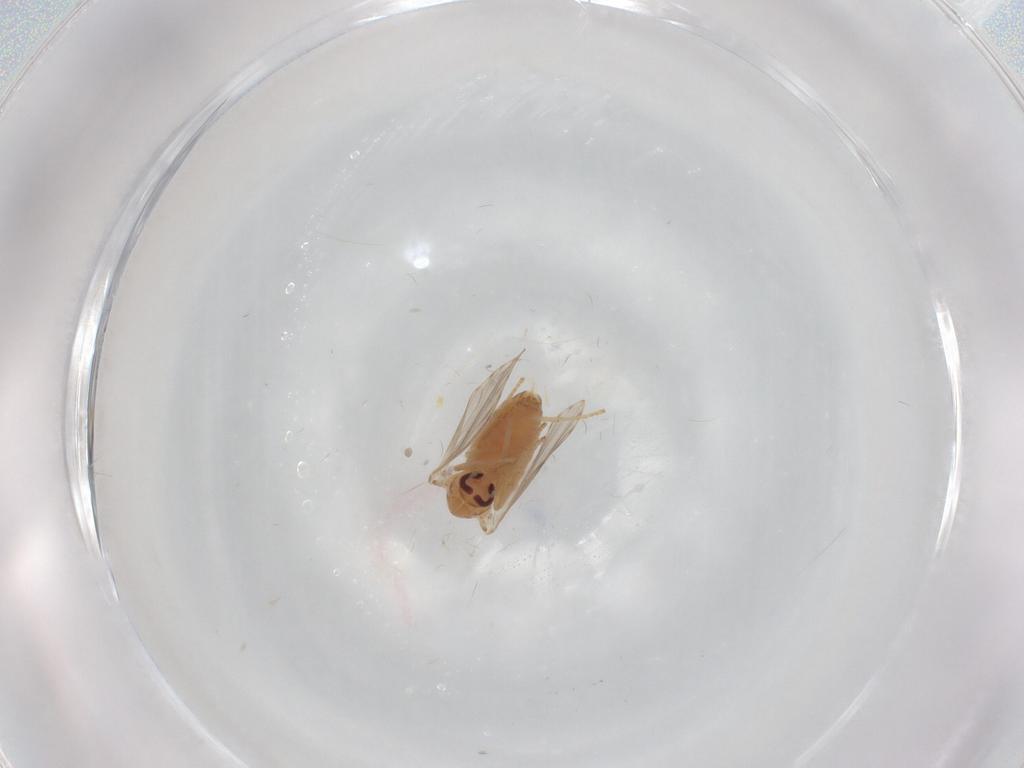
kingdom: Animalia
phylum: Arthropoda
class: Insecta
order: Diptera
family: Psychodidae
